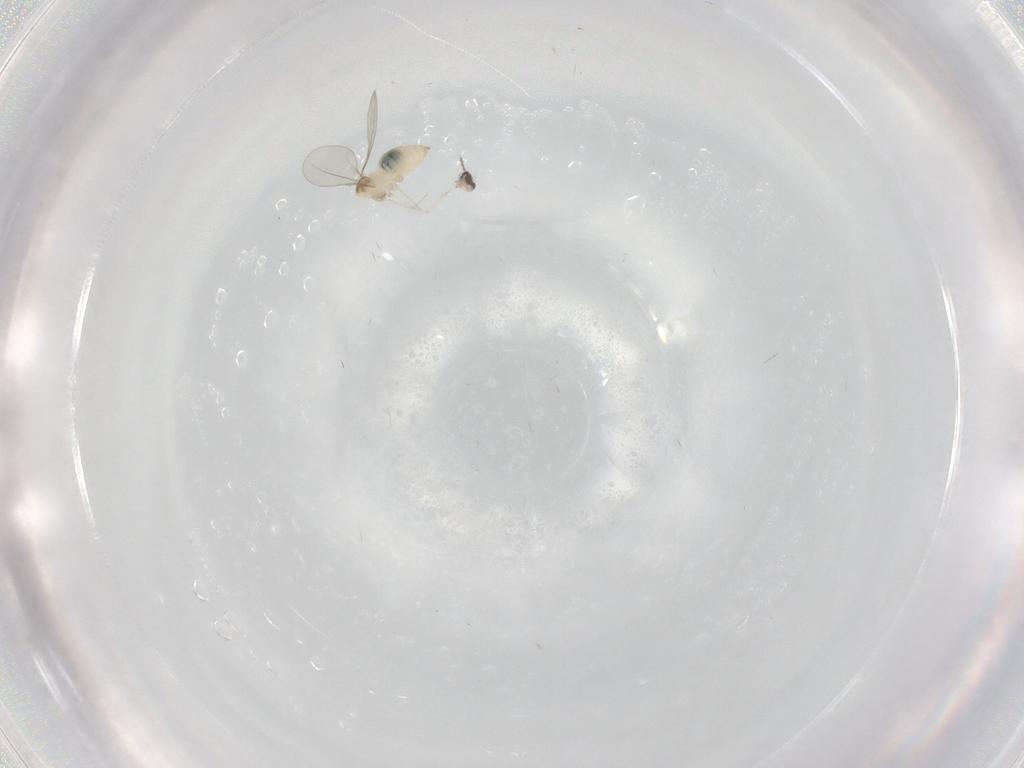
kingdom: Animalia
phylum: Arthropoda
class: Insecta
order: Diptera
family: Cecidomyiidae
